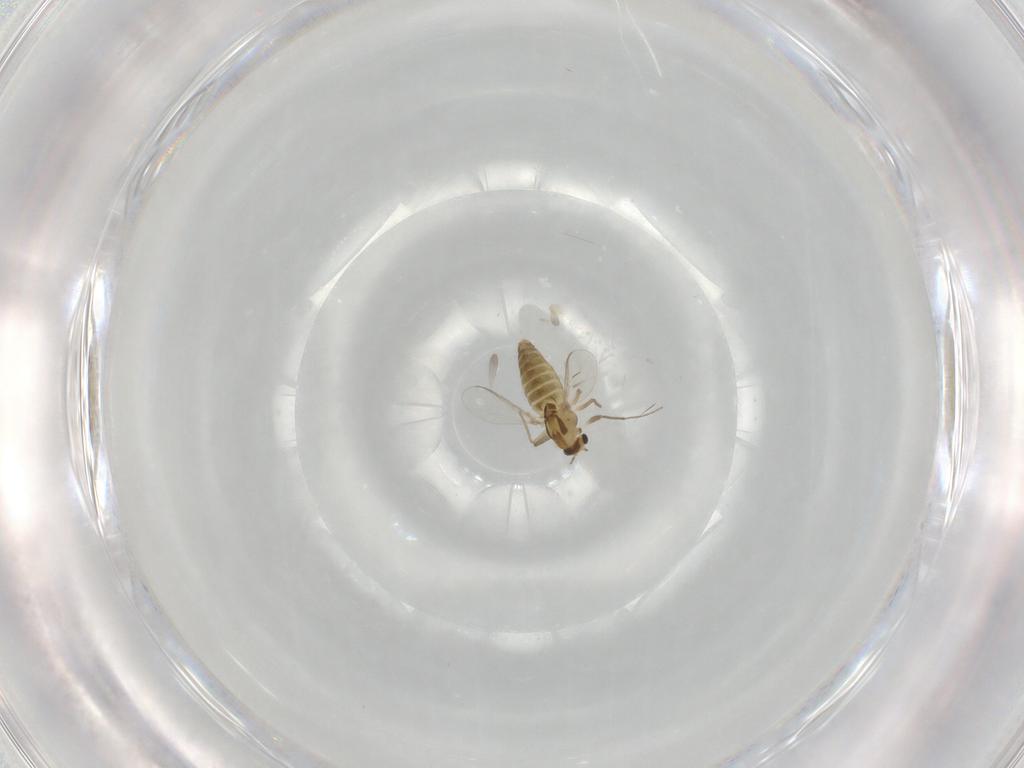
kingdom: Animalia
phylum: Arthropoda
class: Insecta
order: Diptera
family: Chironomidae
